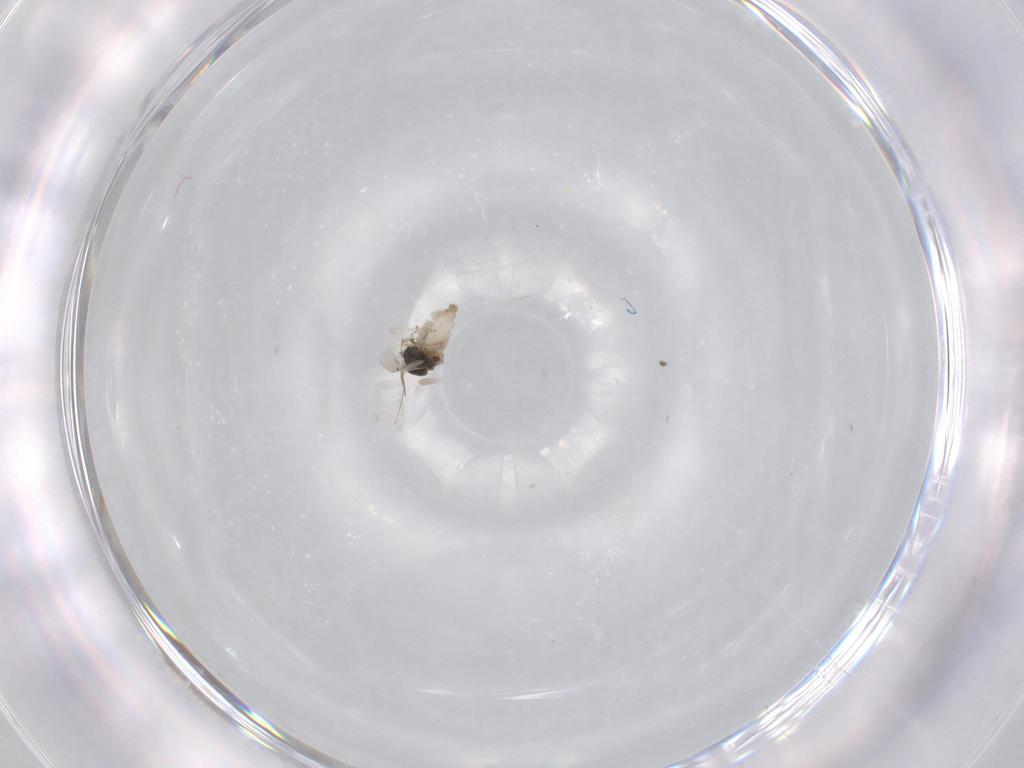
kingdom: Animalia
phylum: Arthropoda
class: Insecta
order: Diptera
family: Cecidomyiidae
